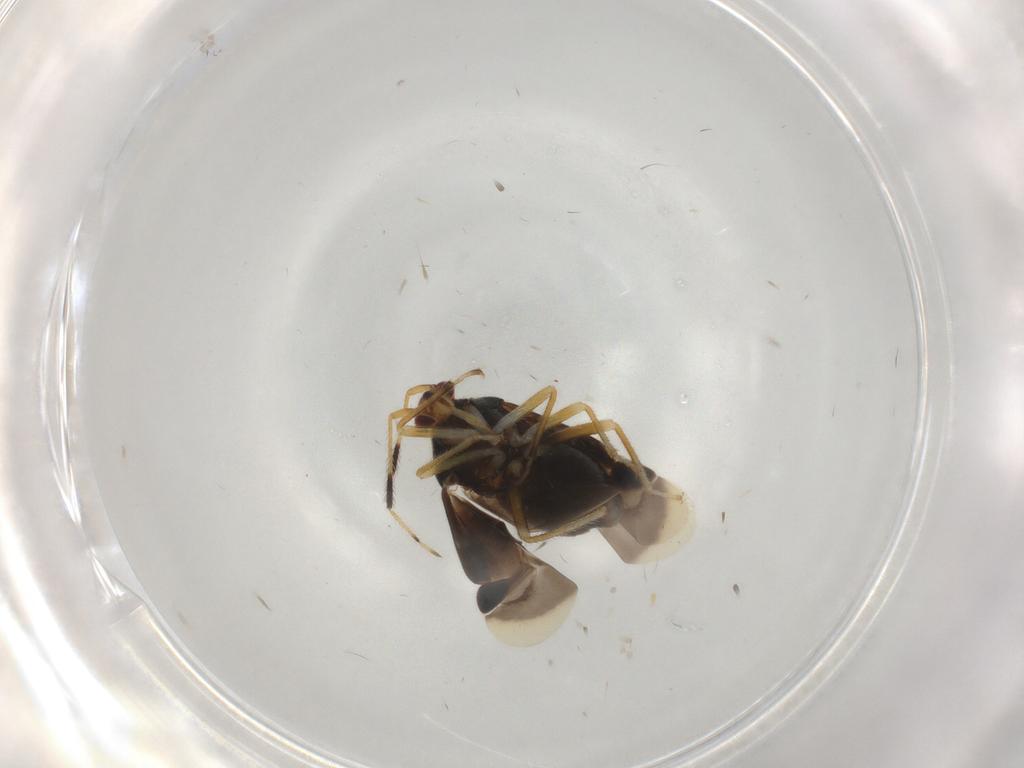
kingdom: Animalia
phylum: Arthropoda
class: Insecta
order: Hemiptera
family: Miridae
